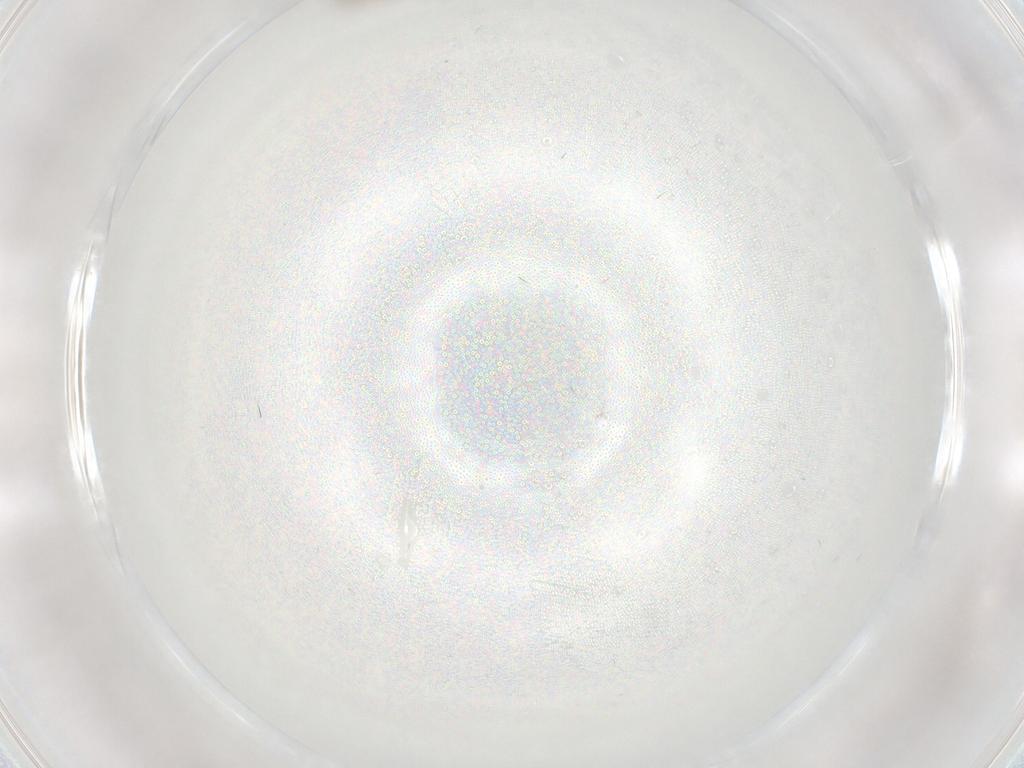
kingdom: Animalia
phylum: Arthropoda
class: Insecta
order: Diptera
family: Sciaridae
